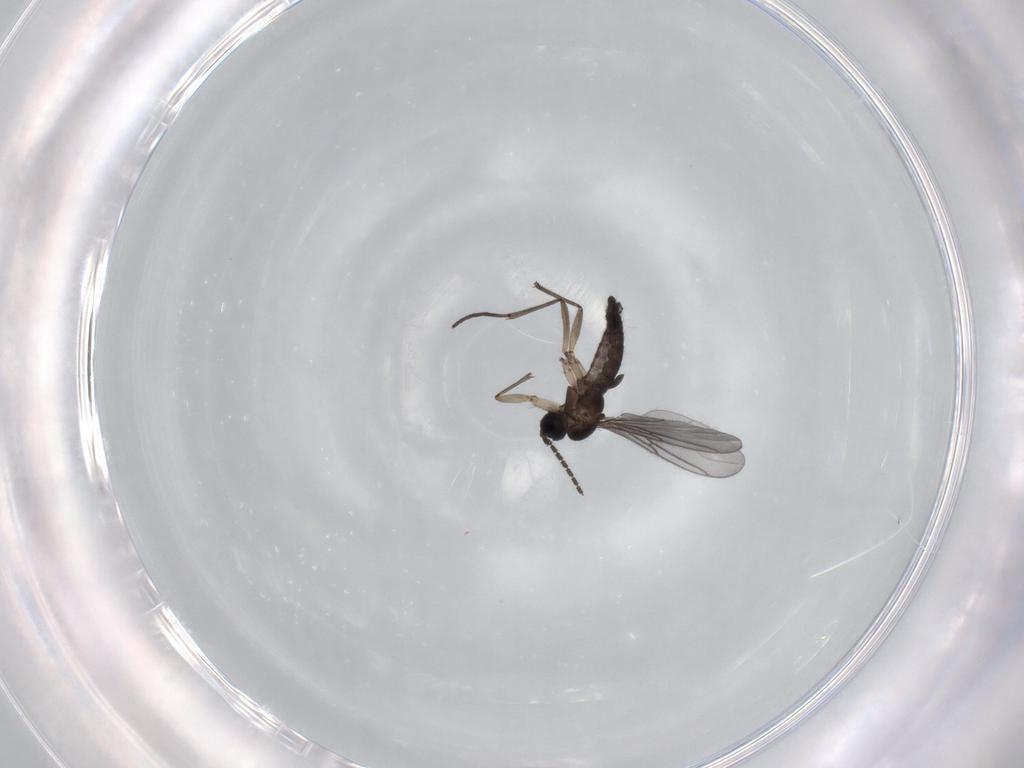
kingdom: Animalia
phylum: Arthropoda
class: Insecta
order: Diptera
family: Sciaridae
